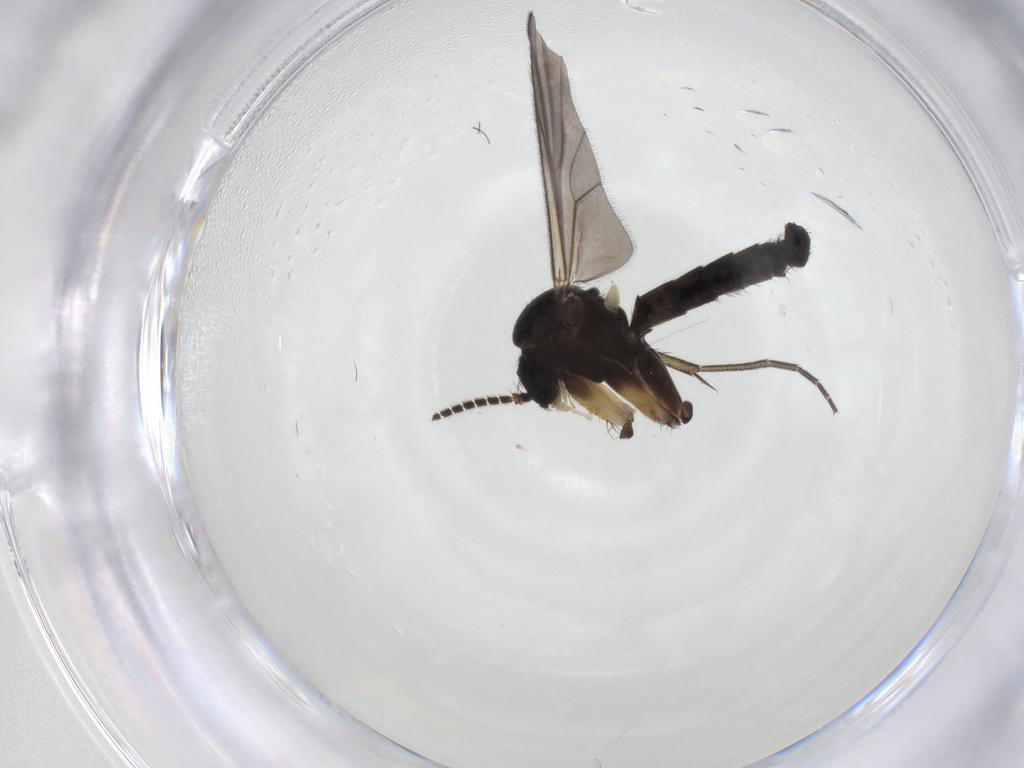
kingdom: Animalia
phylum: Arthropoda
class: Insecta
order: Diptera
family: Mycetophilidae
